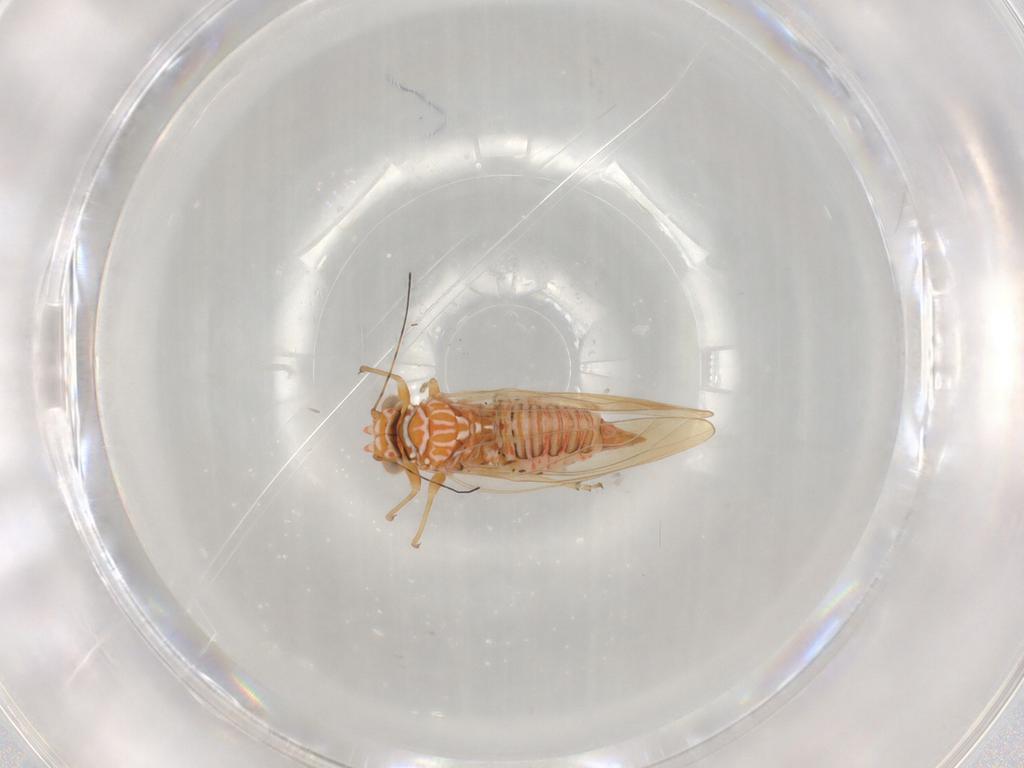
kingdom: Animalia
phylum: Arthropoda
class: Insecta
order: Hemiptera
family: Psyllidae
